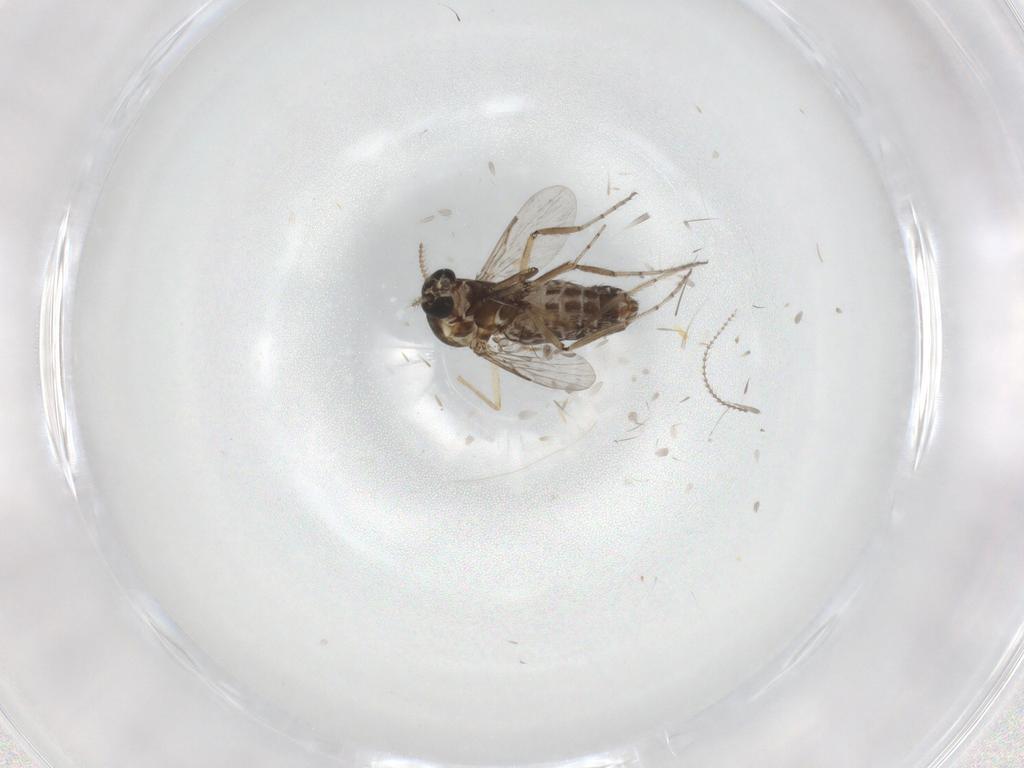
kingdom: Animalia
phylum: Arthropoda
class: Insecta
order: Diptera
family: Ceratopogonidae
